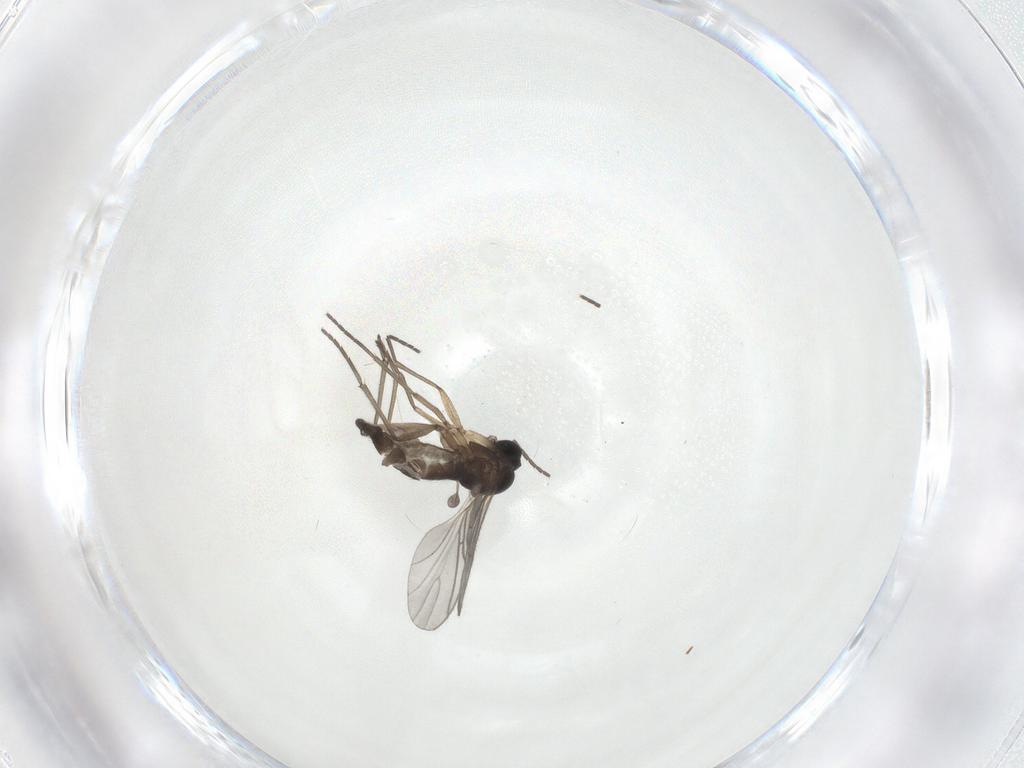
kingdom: Animalia
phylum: Arthropoda
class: Insecta
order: Diptera
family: Sciaridae
